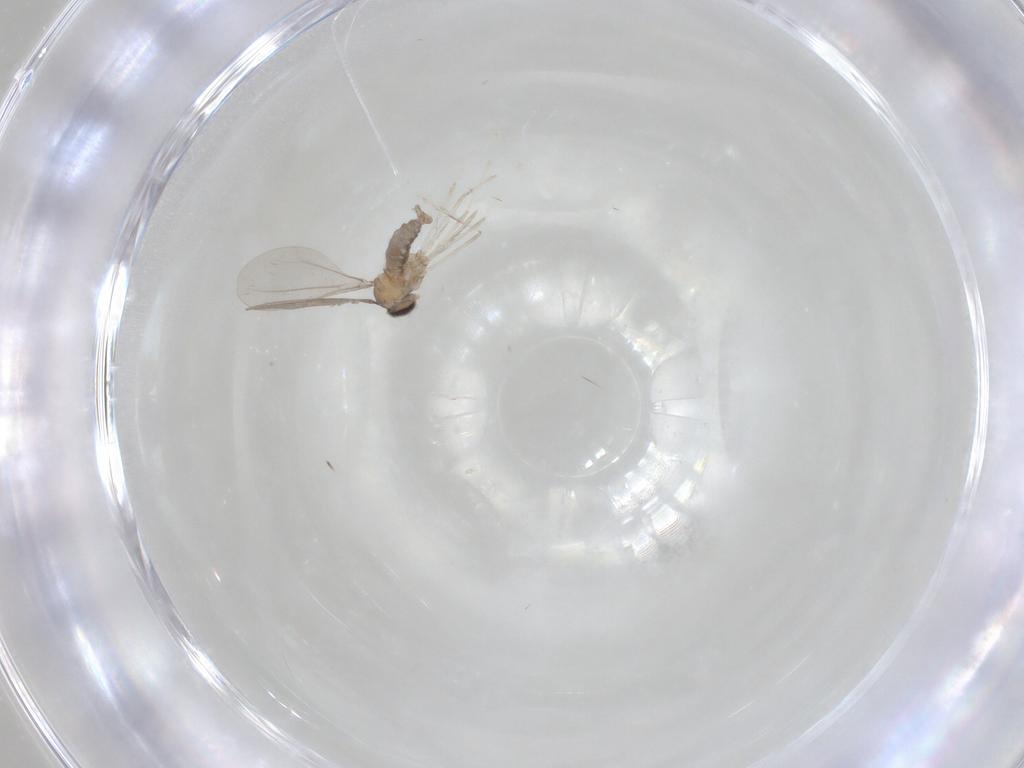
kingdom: Animalia
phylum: Arthropoda
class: Insecta
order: Diptera
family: Cecidomyiidae
